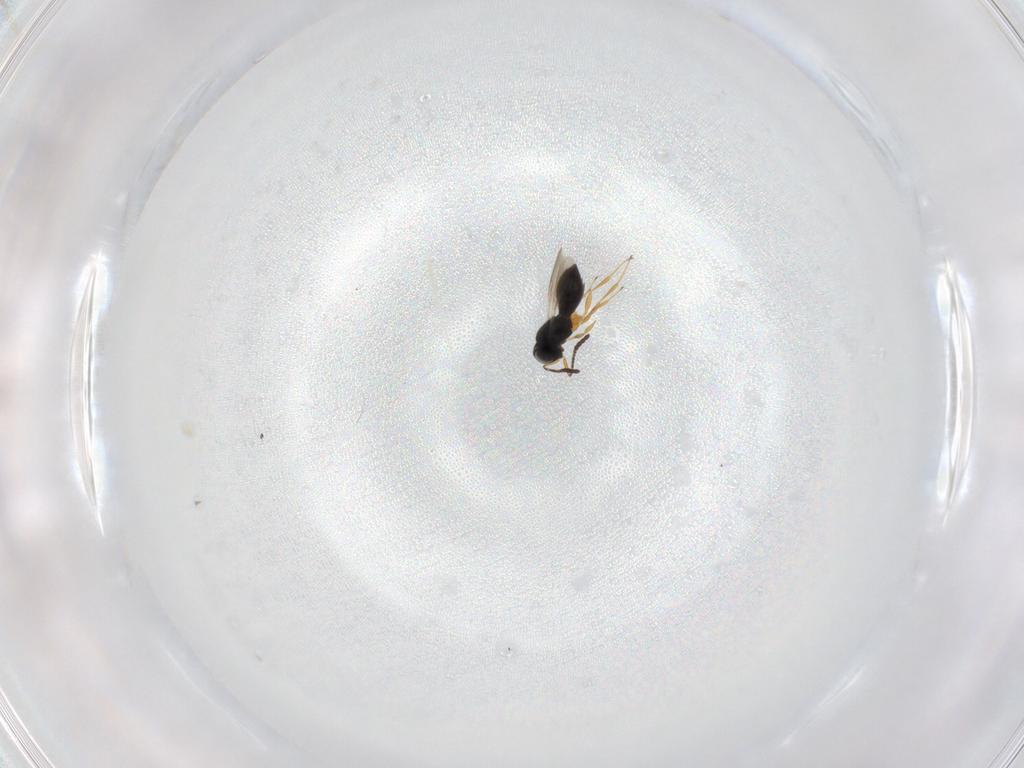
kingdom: Animalia
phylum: Arthropoda
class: Insecta
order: Hymenoptera
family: Scelionidae
